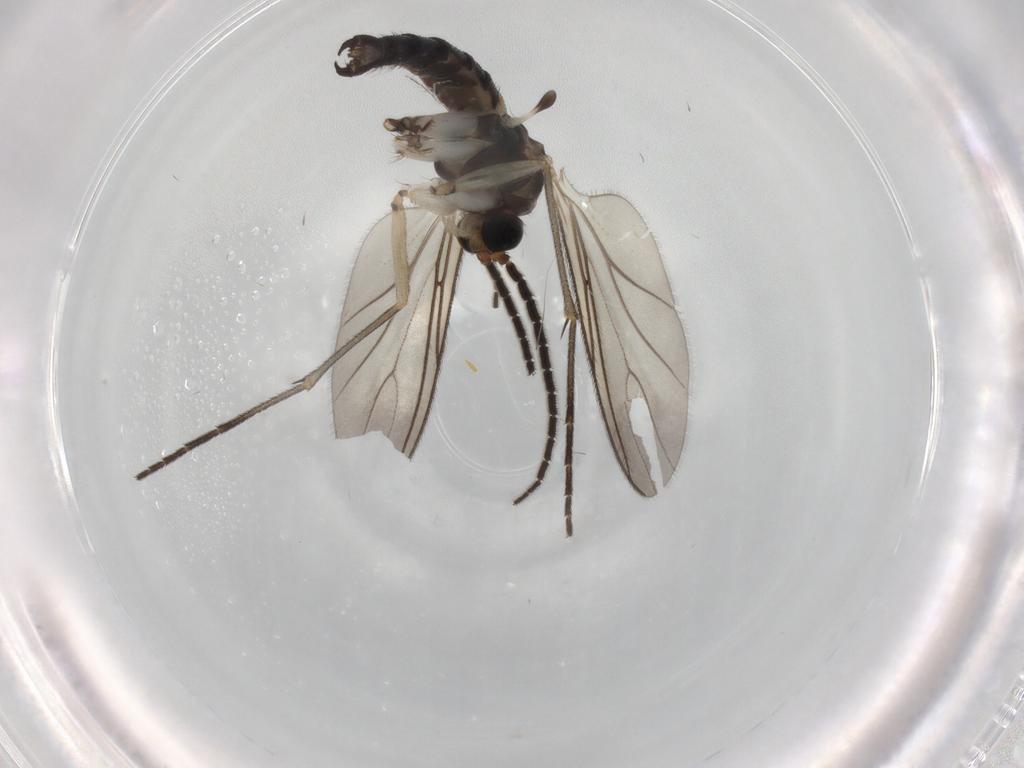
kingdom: Animalia
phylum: Arthropoda
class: Insecta
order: Diptera
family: Sciaridae
